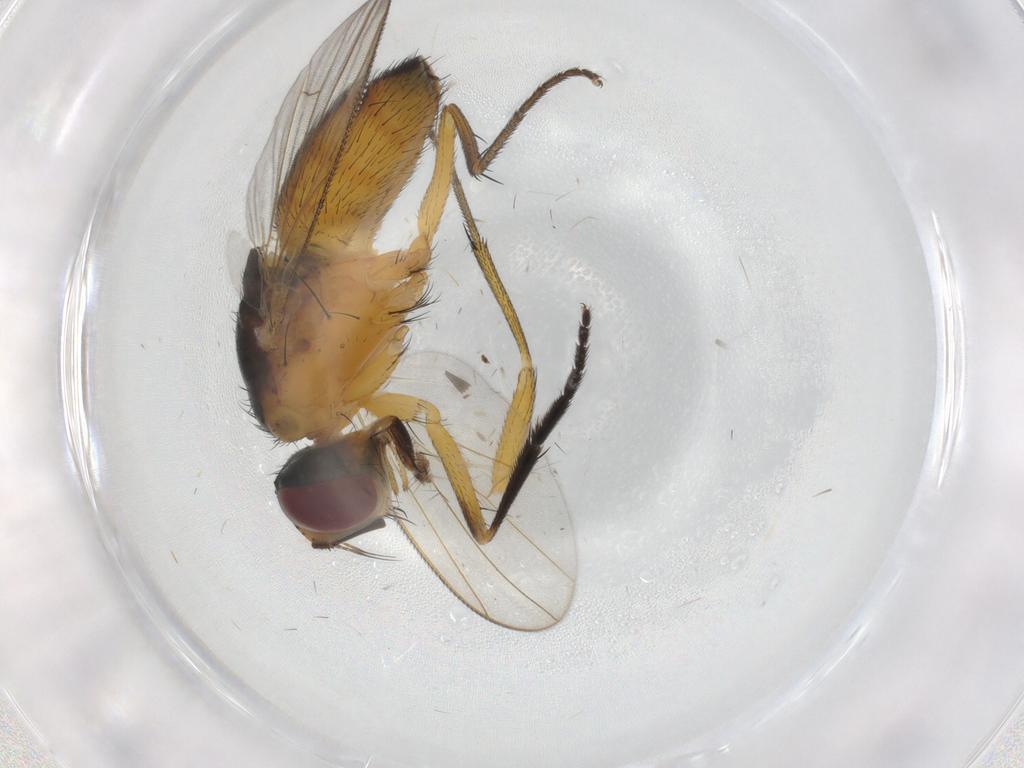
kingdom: Animalia
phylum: Arthropoda
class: Insecta
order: Diptera
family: Muscidae
